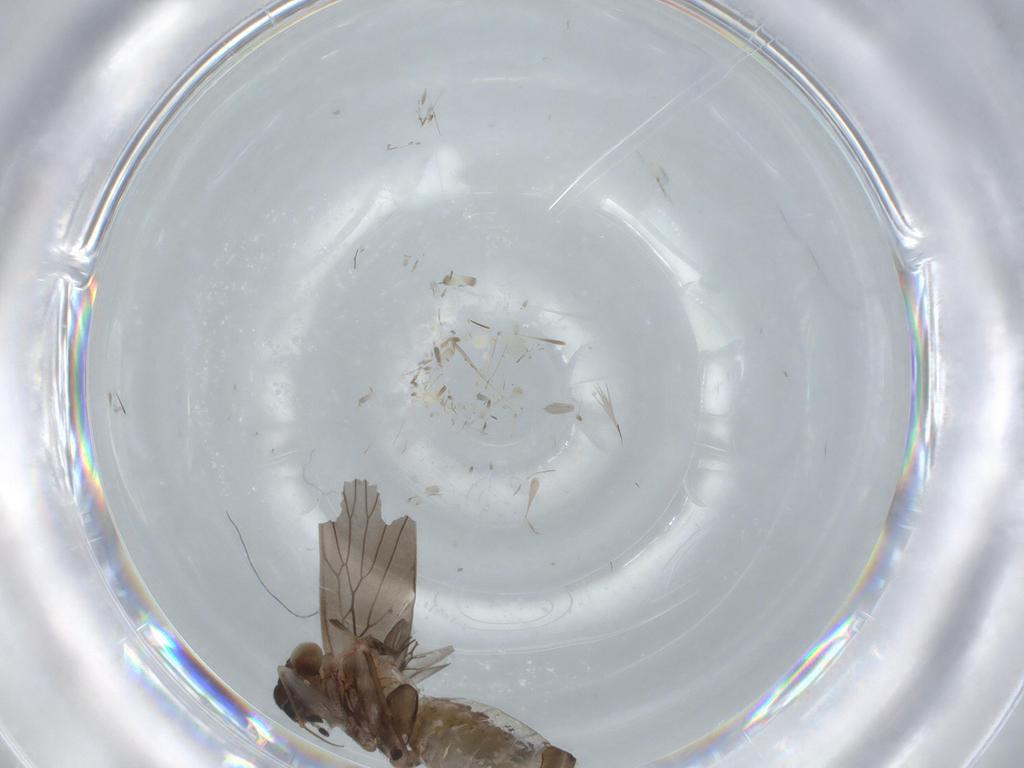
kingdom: Animalia
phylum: Arthropoda
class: Insecta
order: Psocodea
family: Lepidopsocidae
